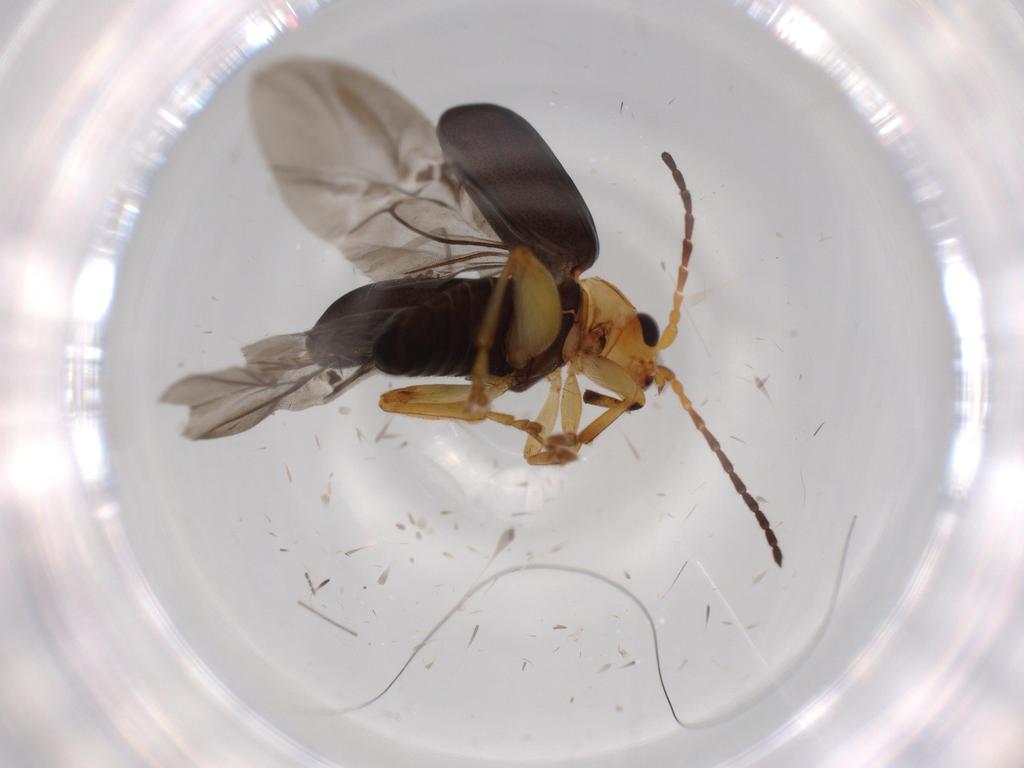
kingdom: Animalia
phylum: Arthropoda
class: Insecta
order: Coleoptera
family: Chrysomelidae
